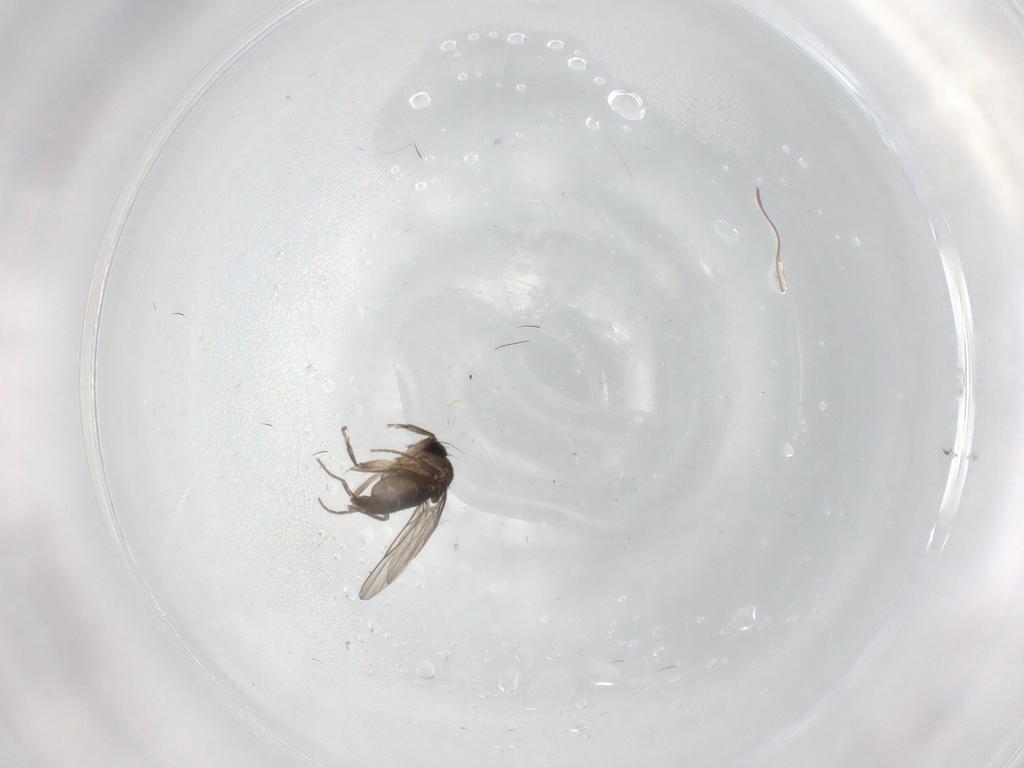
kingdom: Animalia
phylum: Arthropoda
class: Insecta
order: Diptera
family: Phoridae
